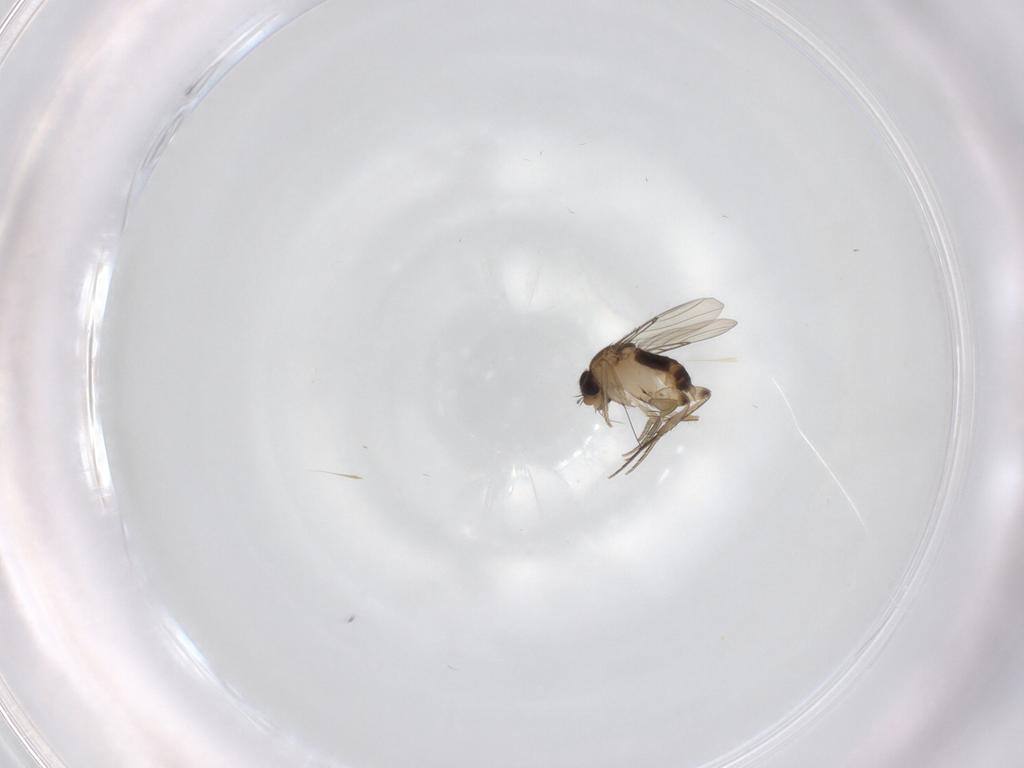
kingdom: Animalia
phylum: Arthropoda
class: Insecta
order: Diptera
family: Phoridae
